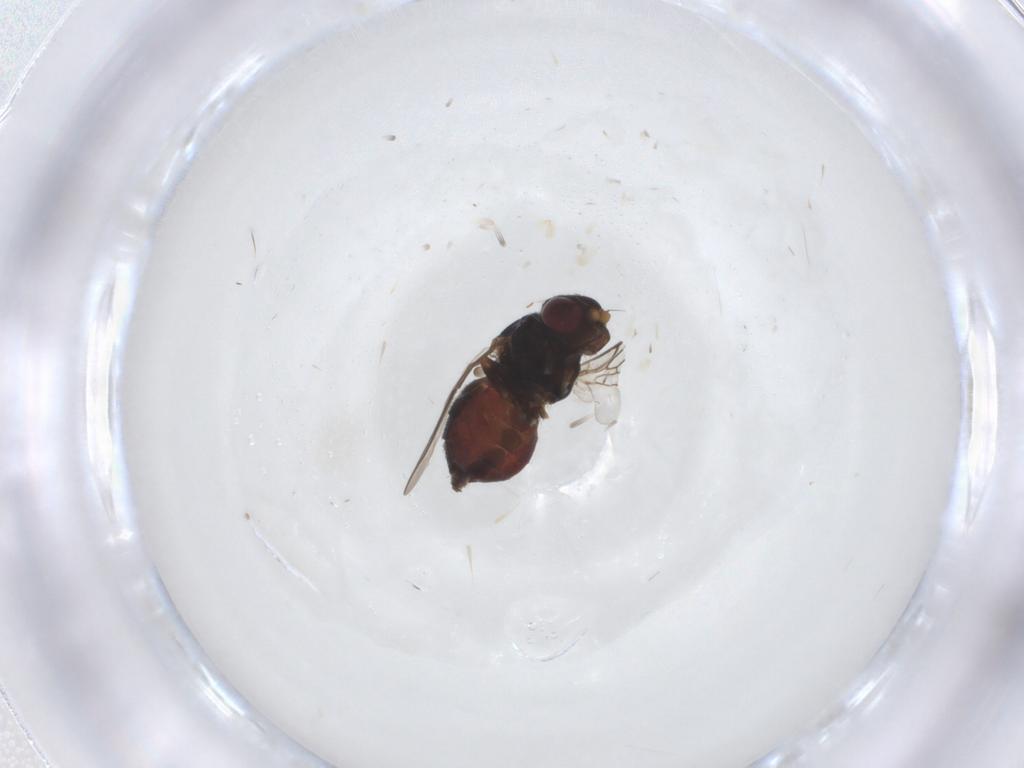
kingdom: Animalia
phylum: Arthropoda
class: Insecta
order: Diptera
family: Chloropidae
